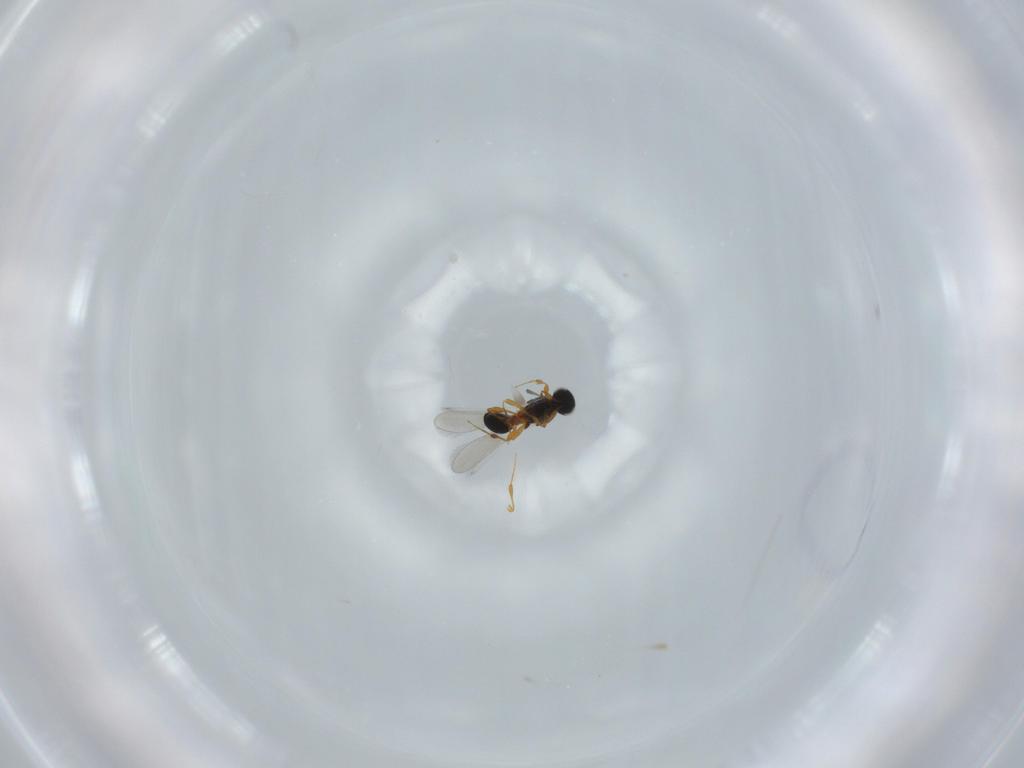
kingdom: Animalia
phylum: Arthropoda
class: Insecta
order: Hymenoptera
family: Platygastridae
